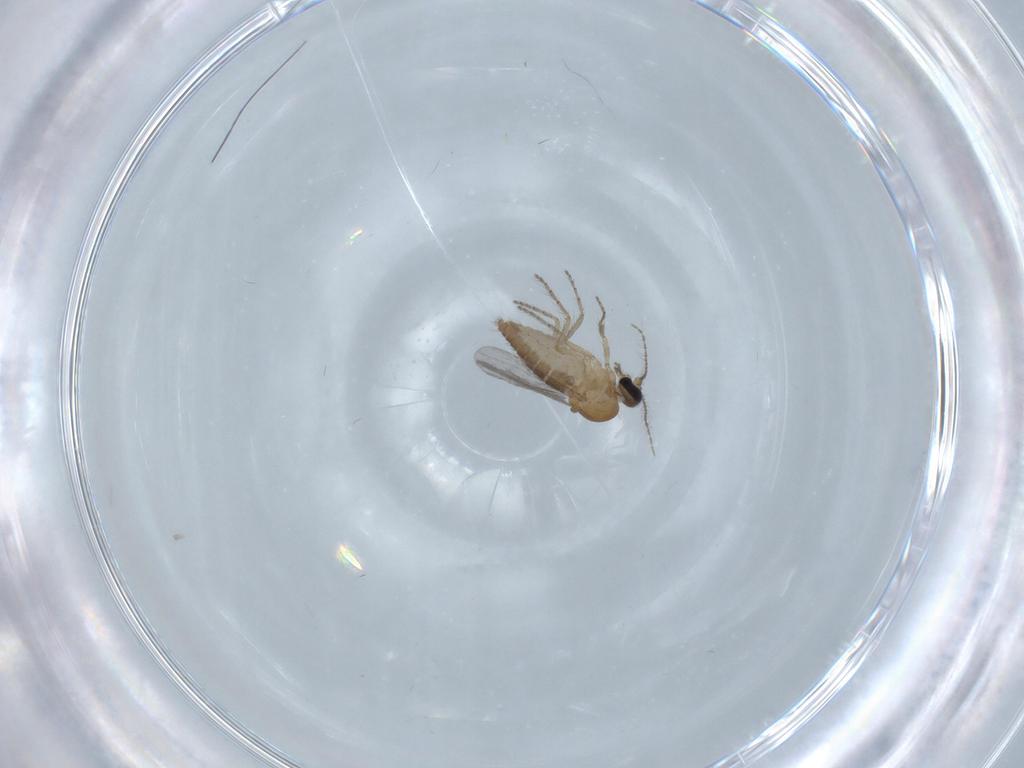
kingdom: Animalia
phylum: Arthropoda
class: Insecta
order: Diptera
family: Ceratopogonidae
